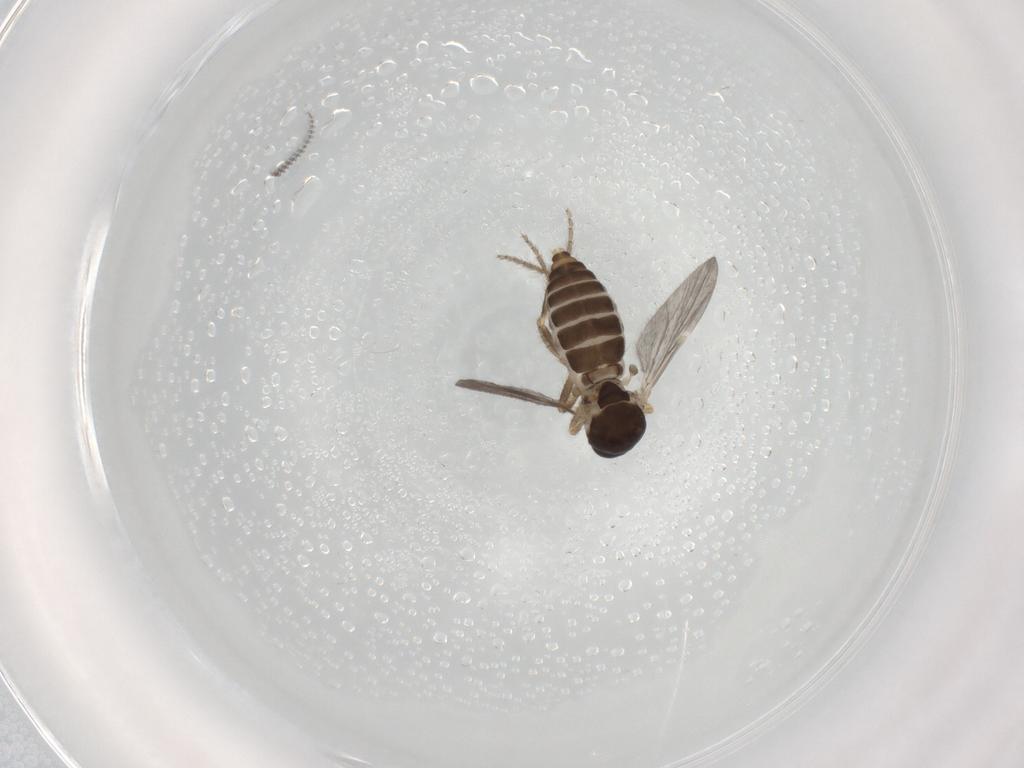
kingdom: Animalia
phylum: Arthropoda
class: Insecta
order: Diptera
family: Ceratopogonidae
